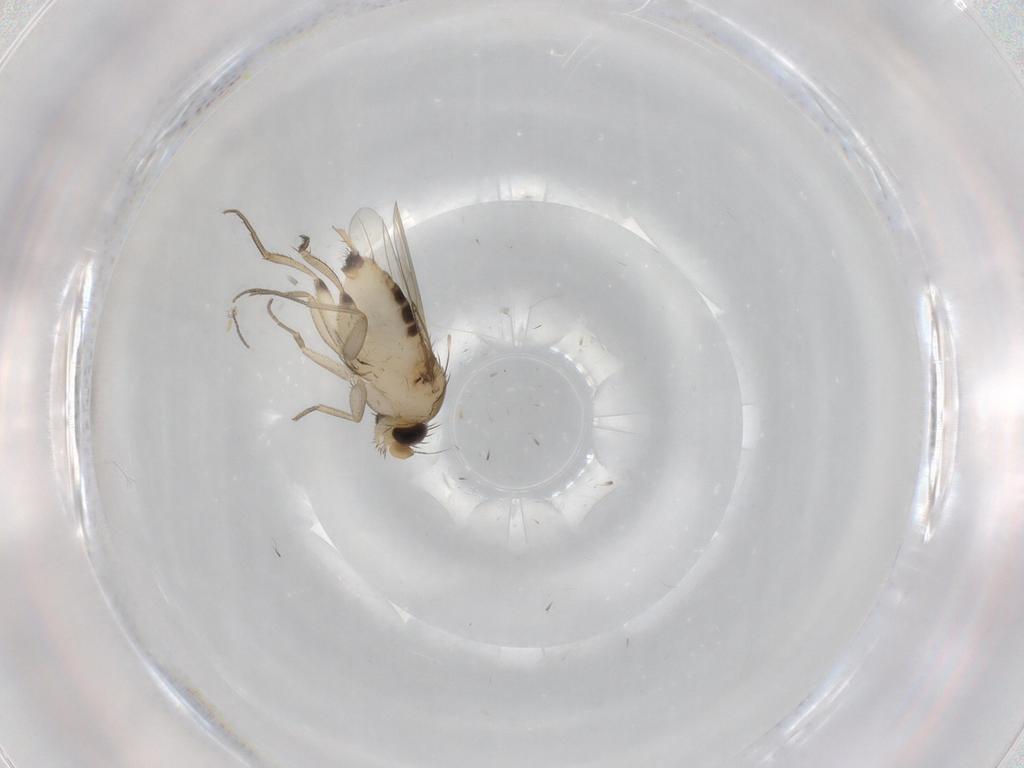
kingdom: Animalia
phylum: Arthropoda
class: Insecta
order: Diptera
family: Phoridae
